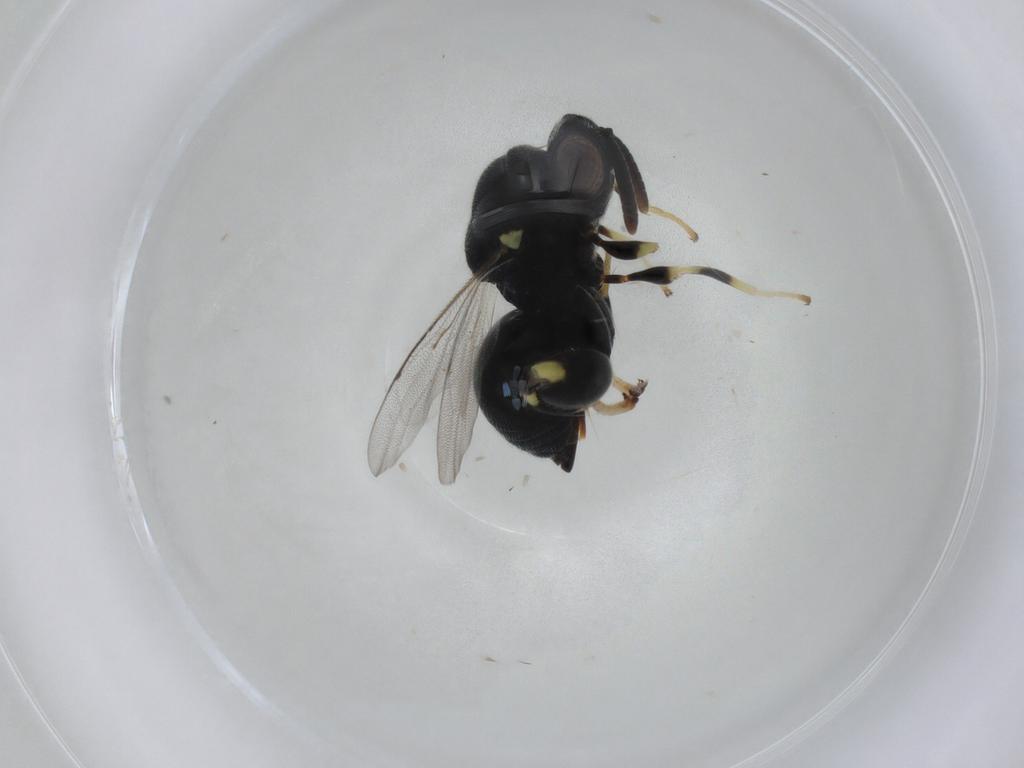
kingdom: Animalia
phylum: Arthropoda
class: Insecta
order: Hymenoptera
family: Chalcididae
